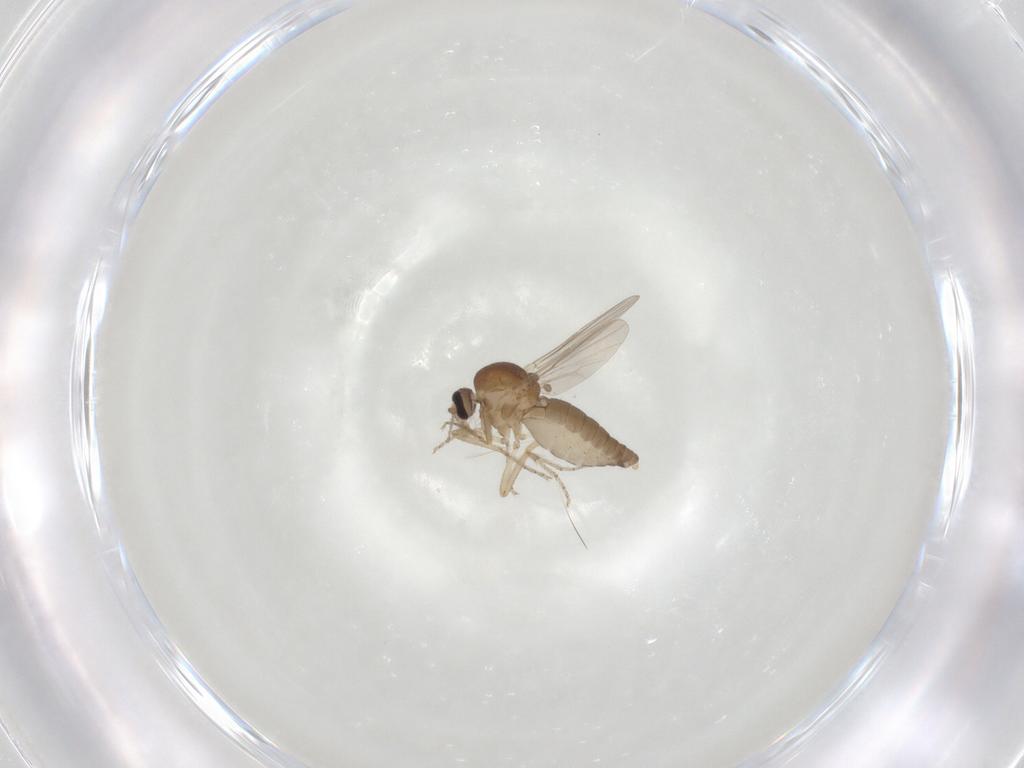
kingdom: Animalia
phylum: Arthropoda
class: Insecta
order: Diptera
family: Ceratopogonidae
